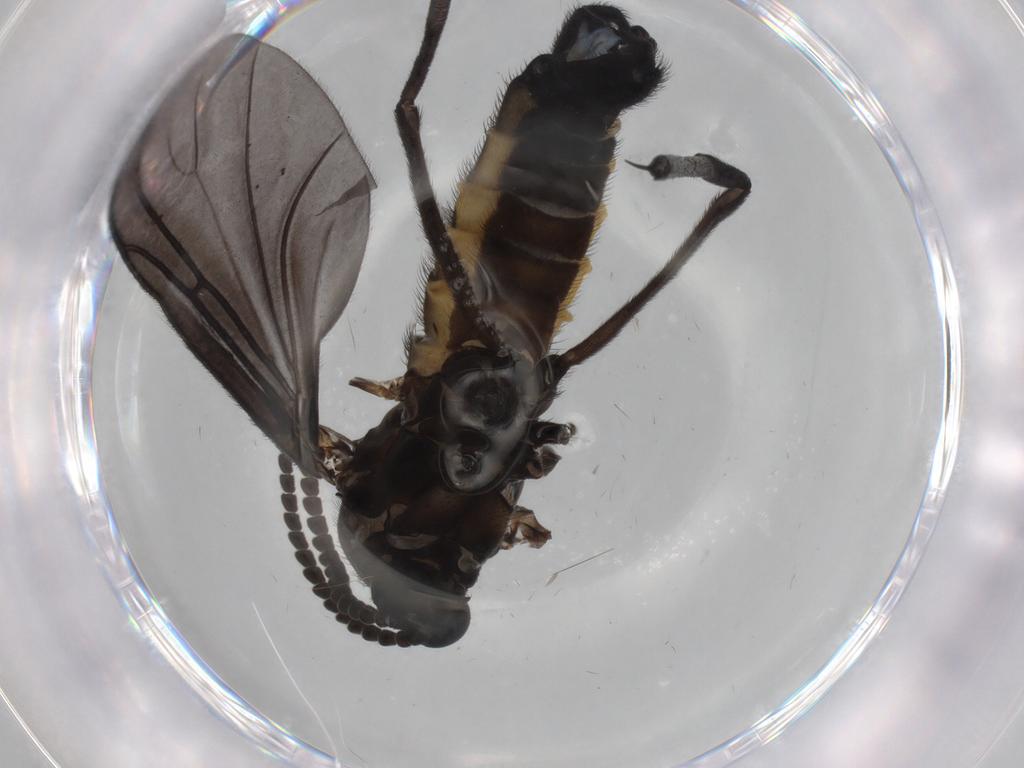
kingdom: Animalia
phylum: Arthropoda
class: Insecta
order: Diptera
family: Sciaridae
